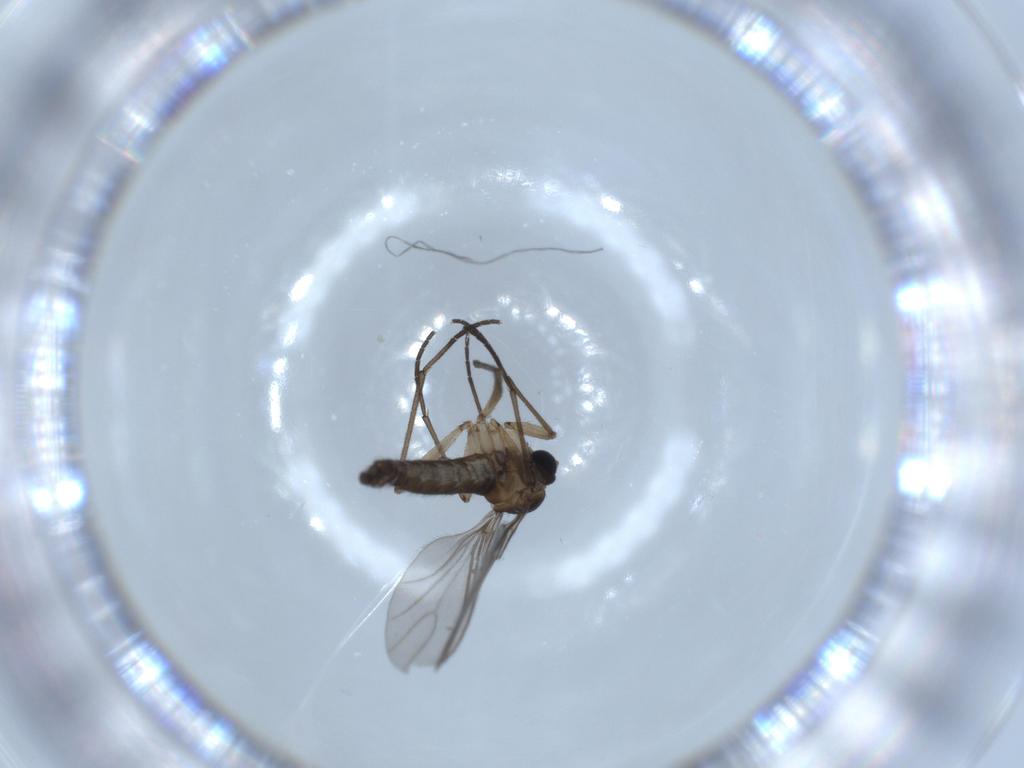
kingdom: Animalia
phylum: Arthropoda
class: Insecta
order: Diptera
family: Sciaridae
